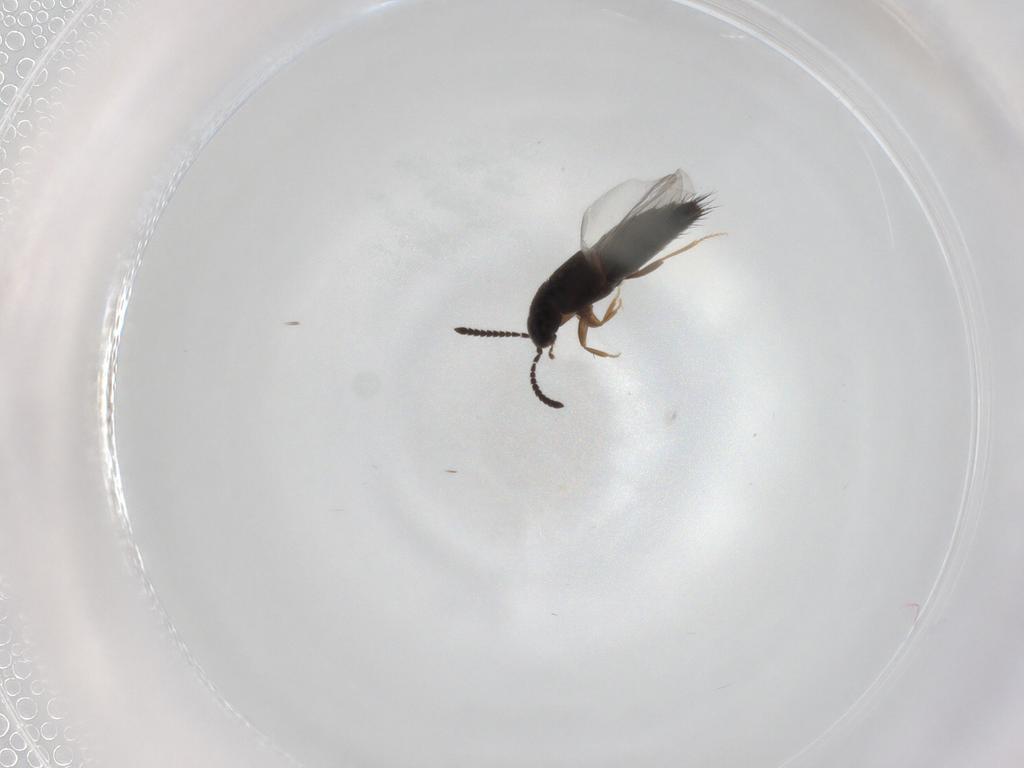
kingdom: Animalia
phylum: Arthropoda
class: Insecta
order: Coleoptera
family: Staphylinidae
